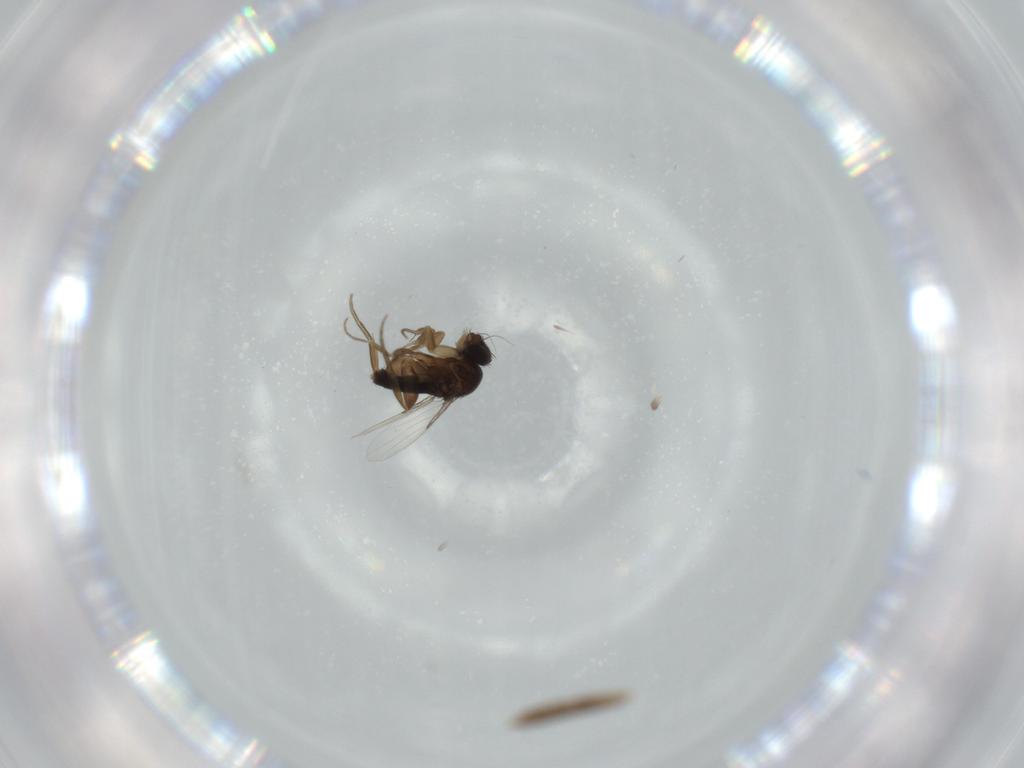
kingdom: Animalia
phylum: Arthropoda
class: Insecta
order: Diptera
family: Phoridae
